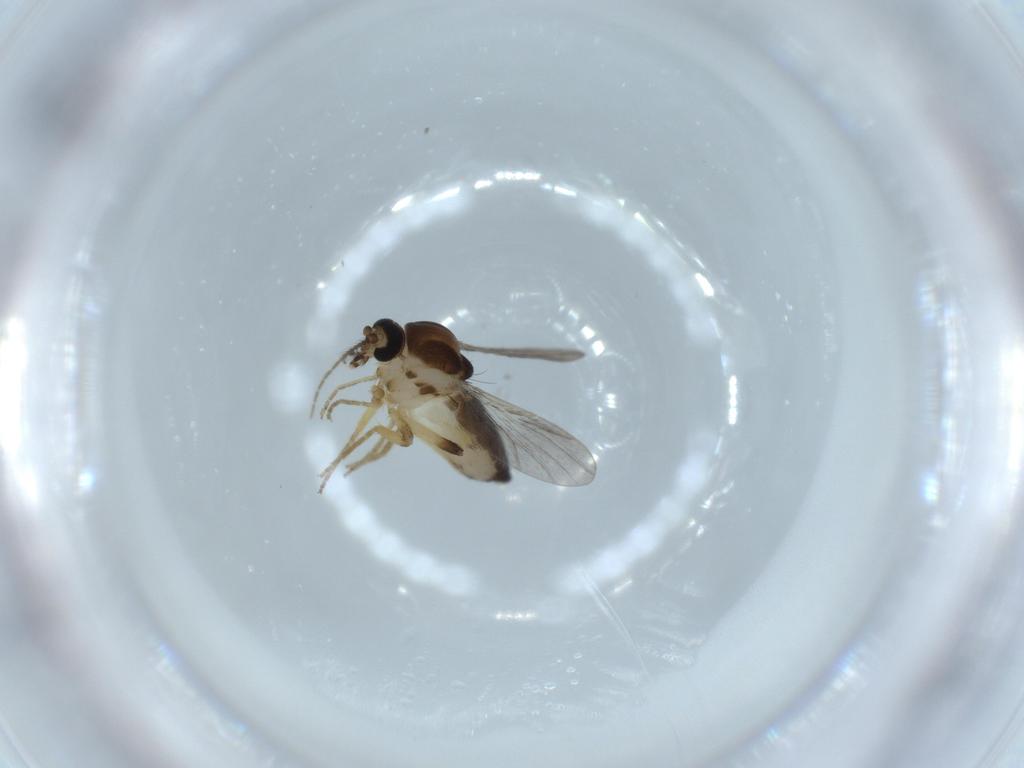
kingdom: Animalia
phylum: Arthropoda
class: Insecta
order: Diptera
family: Ceratopogonidae
